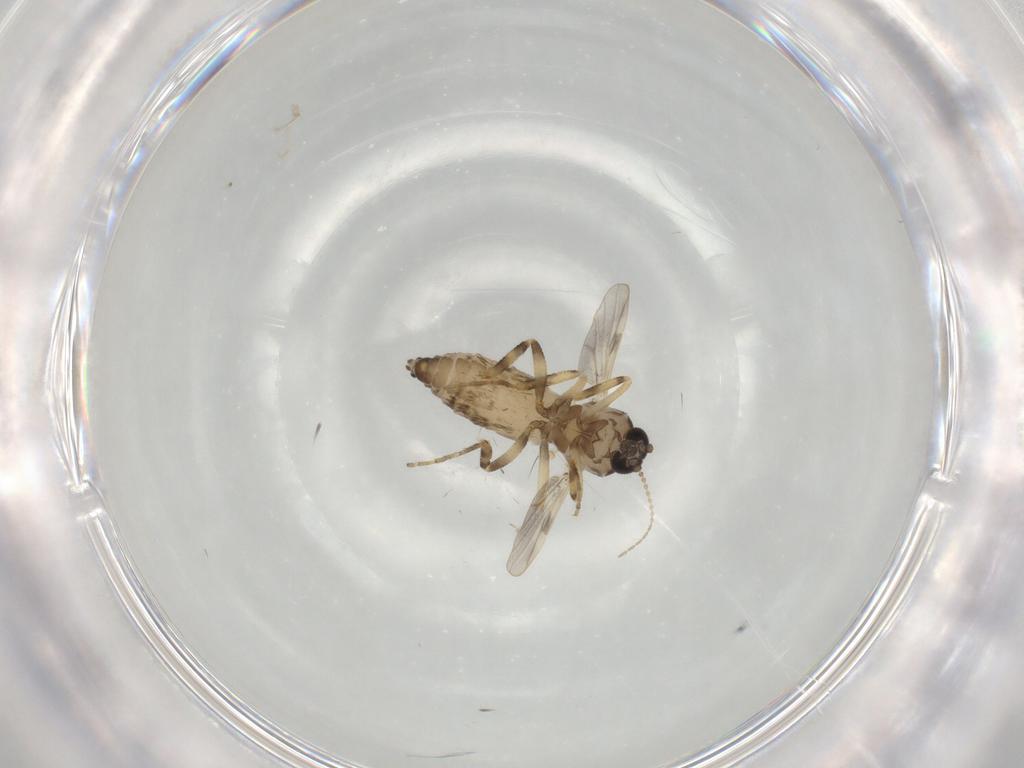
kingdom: Animalia
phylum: Arthropoda
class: Insecta
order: Diptera
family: Ceratopogonidae
